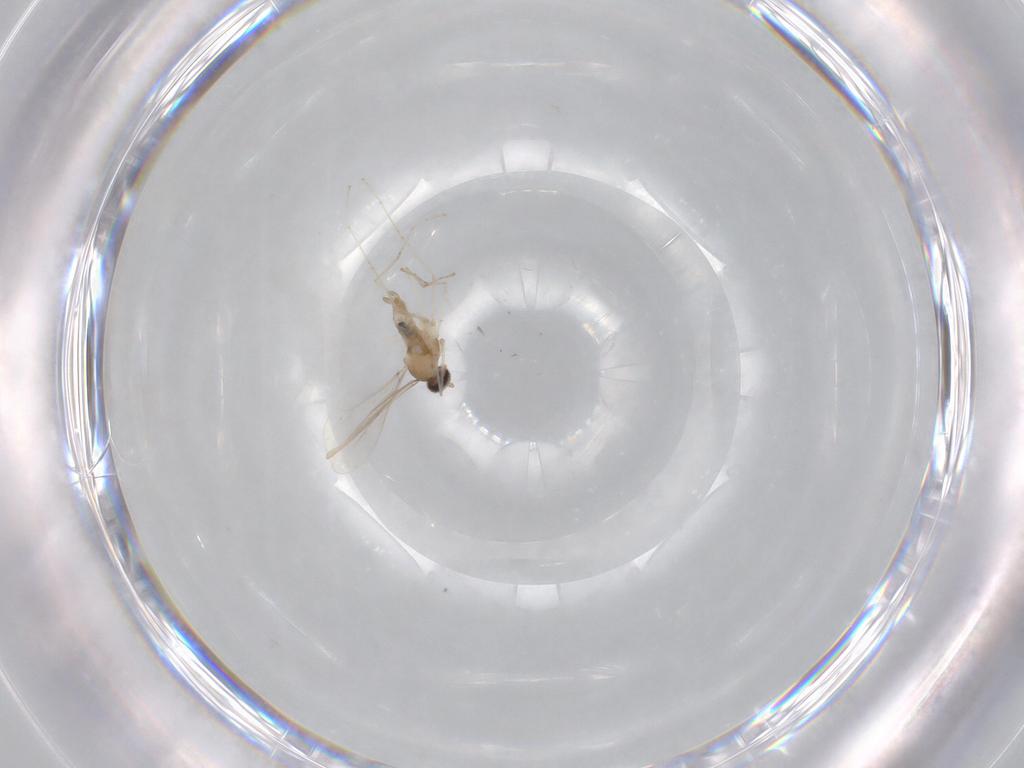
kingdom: Animalia
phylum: Arthropoda
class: Insecta
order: Diptera
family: Cecidomyiidae
